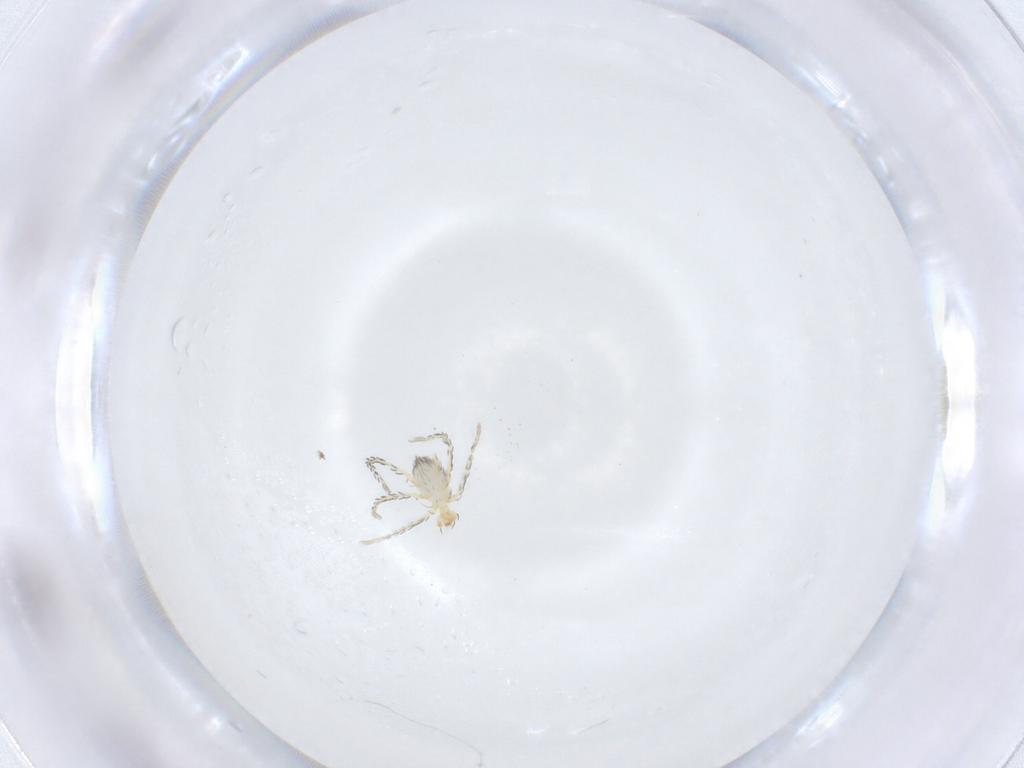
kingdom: Animalia
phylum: Arthropoda
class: Arachnida
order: Trombidiformes
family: Erythraeidae
